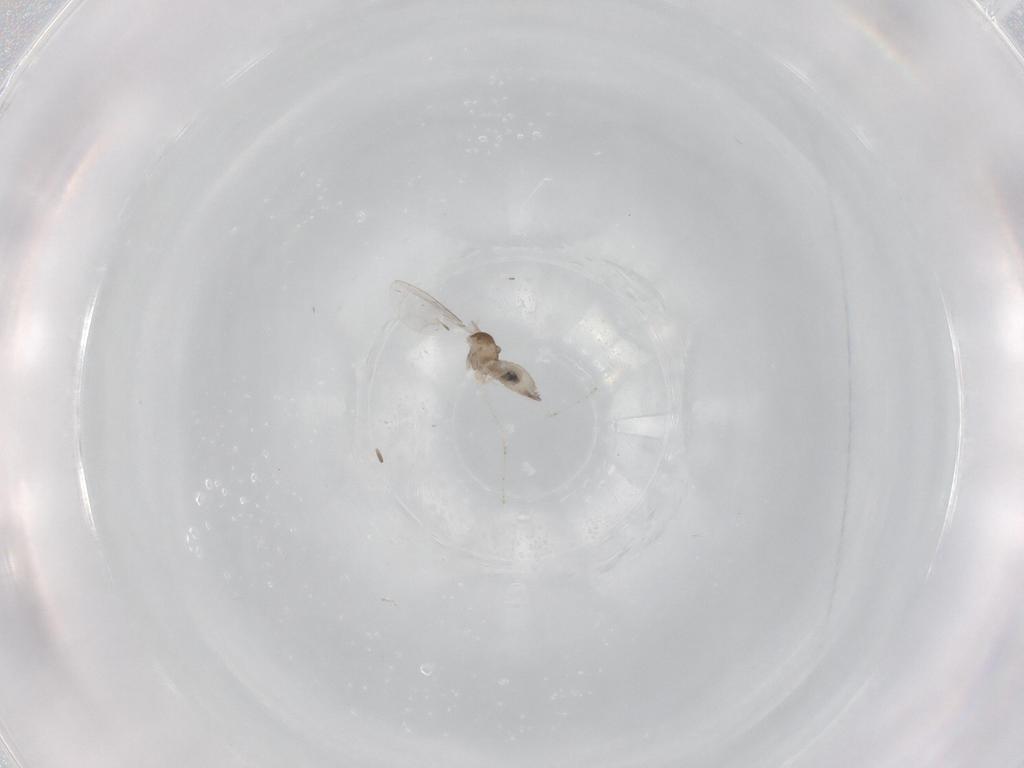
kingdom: Animalia
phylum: Arthropoda
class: Insecta
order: Diptera
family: Cecidomyiidae
